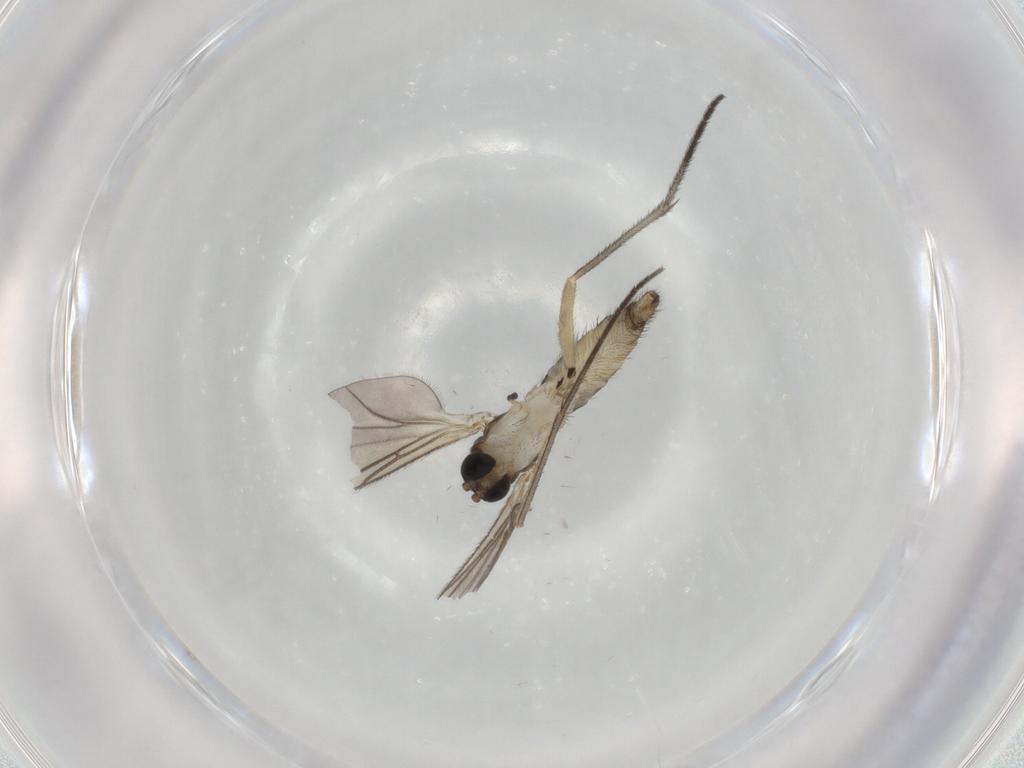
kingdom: Animalia
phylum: Arthropoda
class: Insecta
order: Diptera
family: Phoridae
